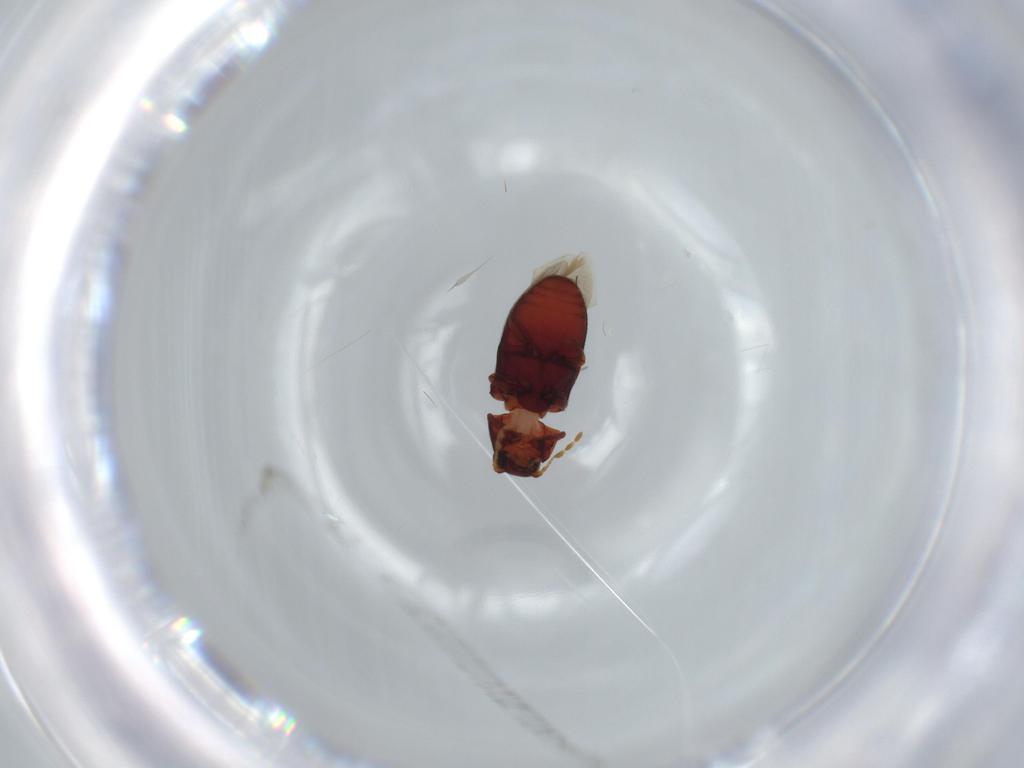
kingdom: Animalia
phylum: Arthropoda
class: Insecta
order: Coleoptera
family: Ptinidae
